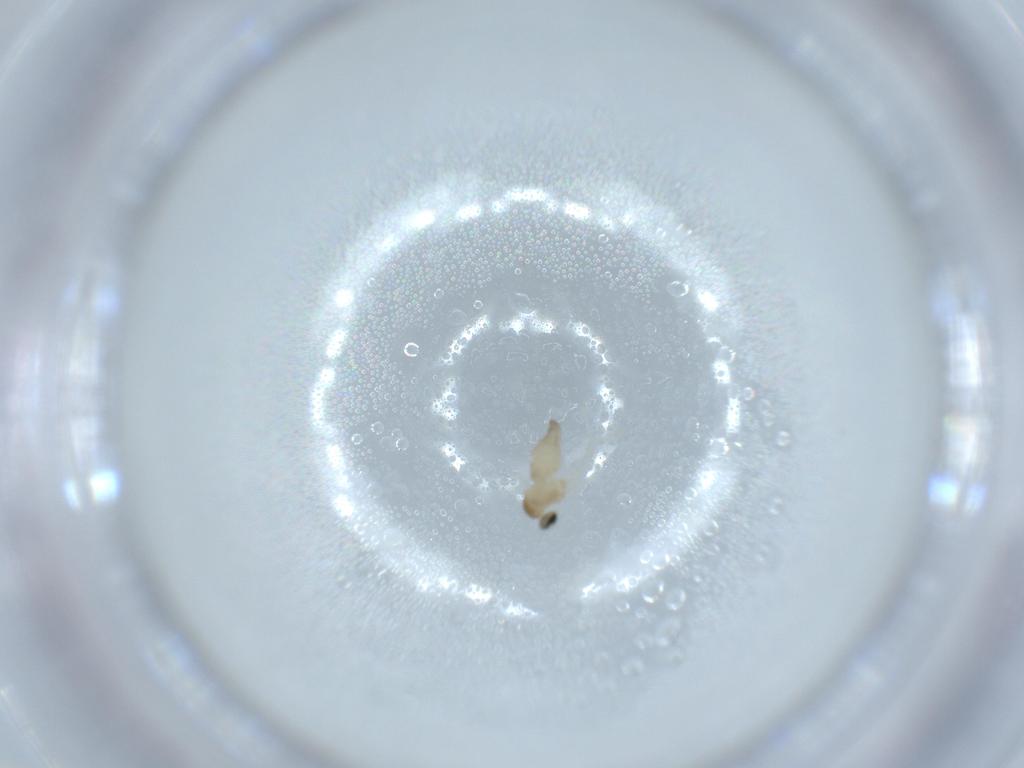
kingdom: Animalia
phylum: Arthropoda
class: Insecta
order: Diptera
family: Cecidomyiidae
